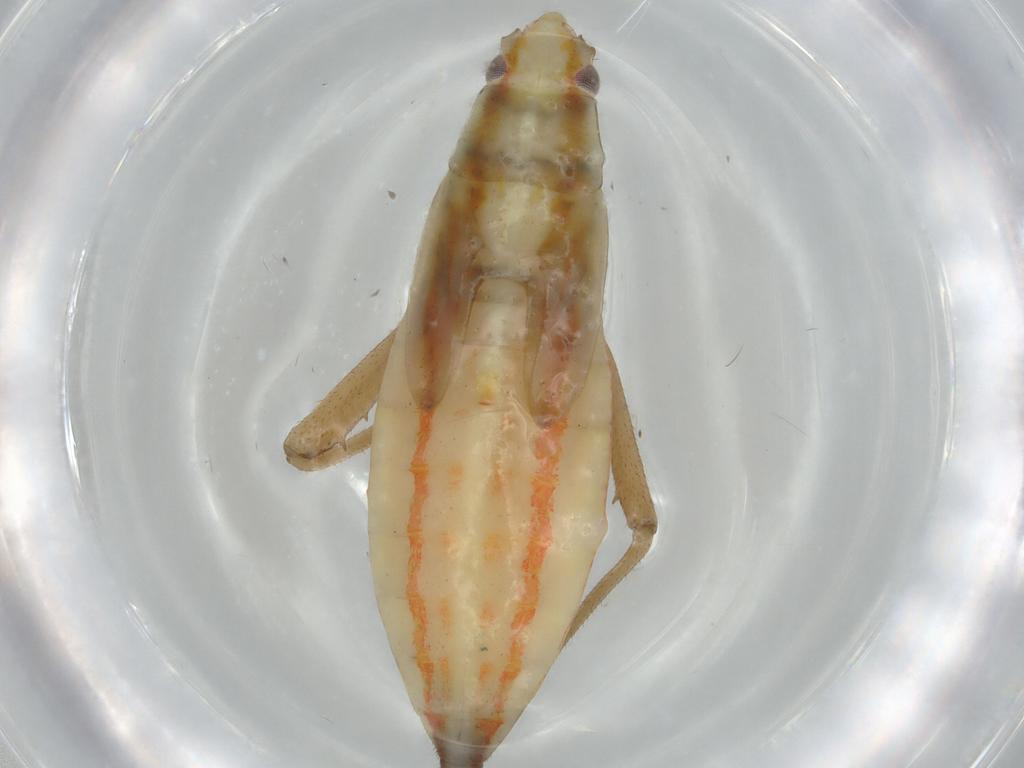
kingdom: Animalia
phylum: Arthropoda
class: Insecta
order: Hemiptera
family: Miridae
